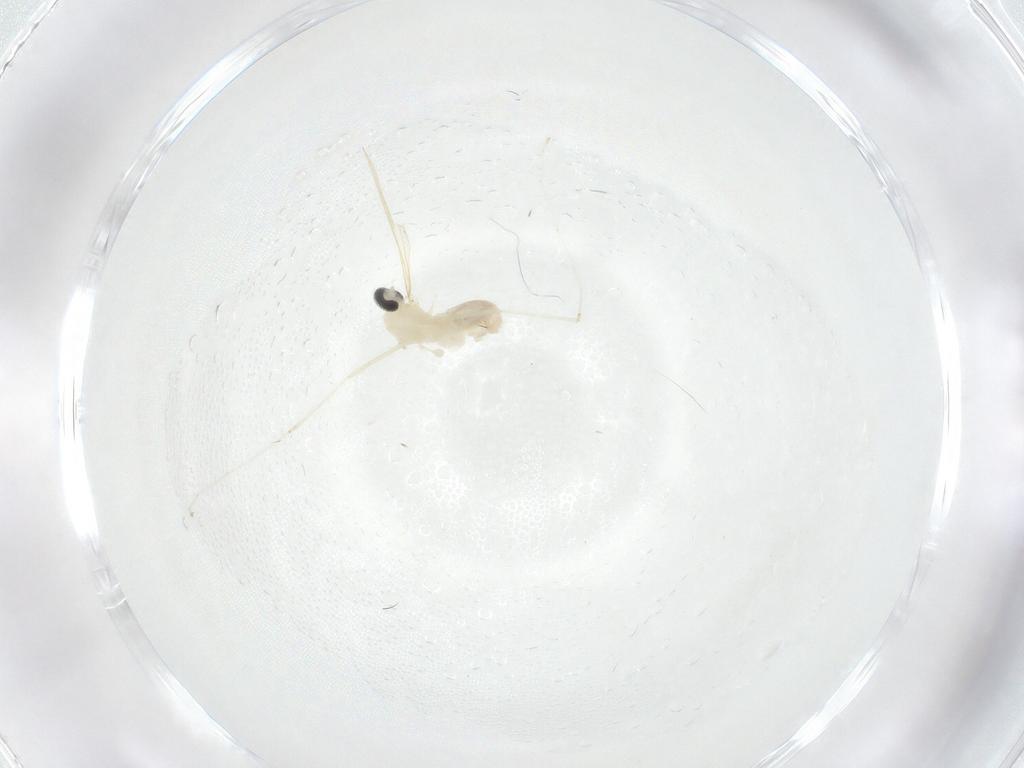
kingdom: Animalia
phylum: Arthropoda
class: Insecta
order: Diptera
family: Cecidomyiidae
